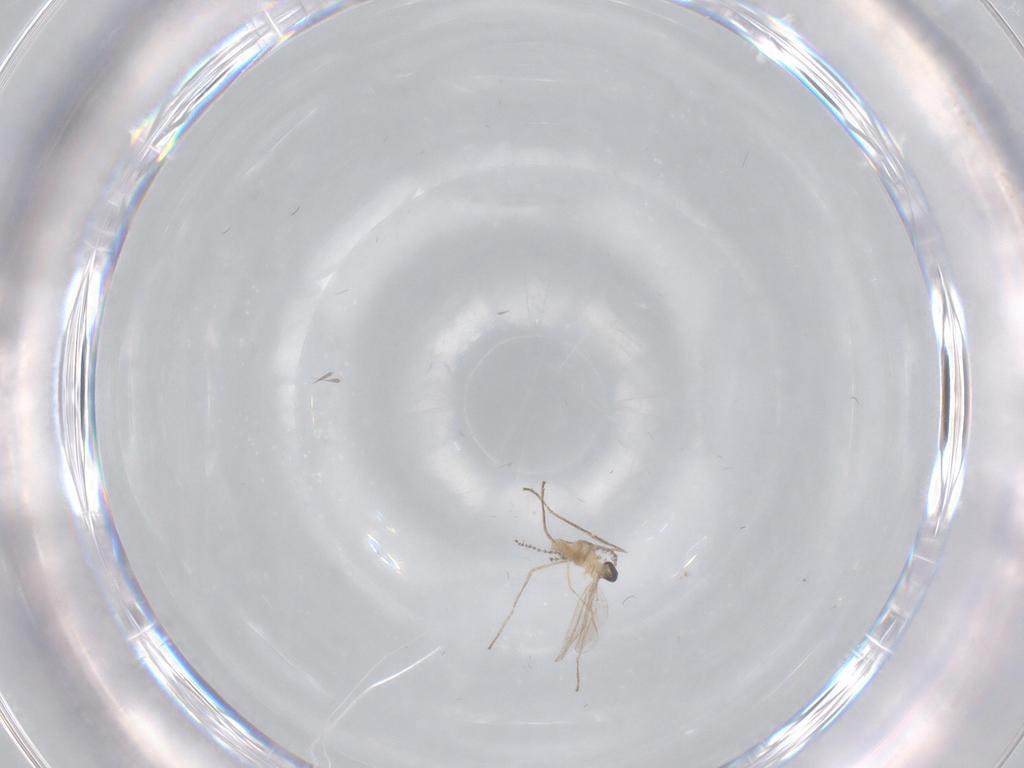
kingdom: Animalia
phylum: Arthropoda
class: Insecta
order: Diptera
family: Cecidomyiidae
